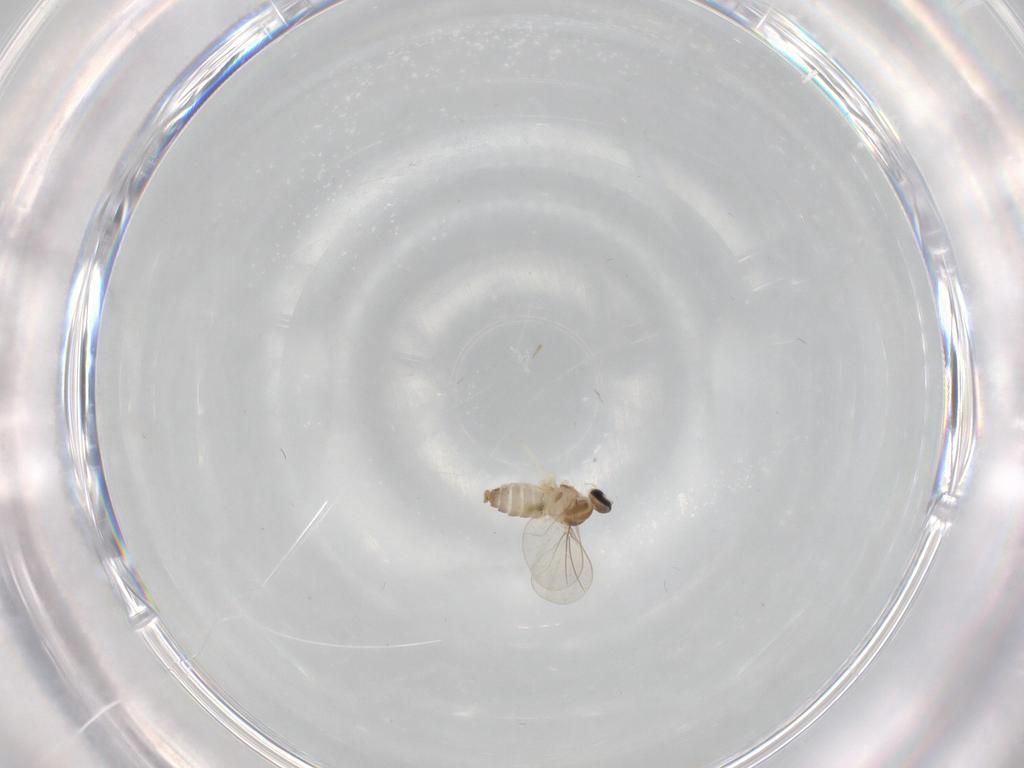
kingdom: Animalia
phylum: Arthropoda
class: Insecta
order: Diptera
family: Cecidomyiidae
